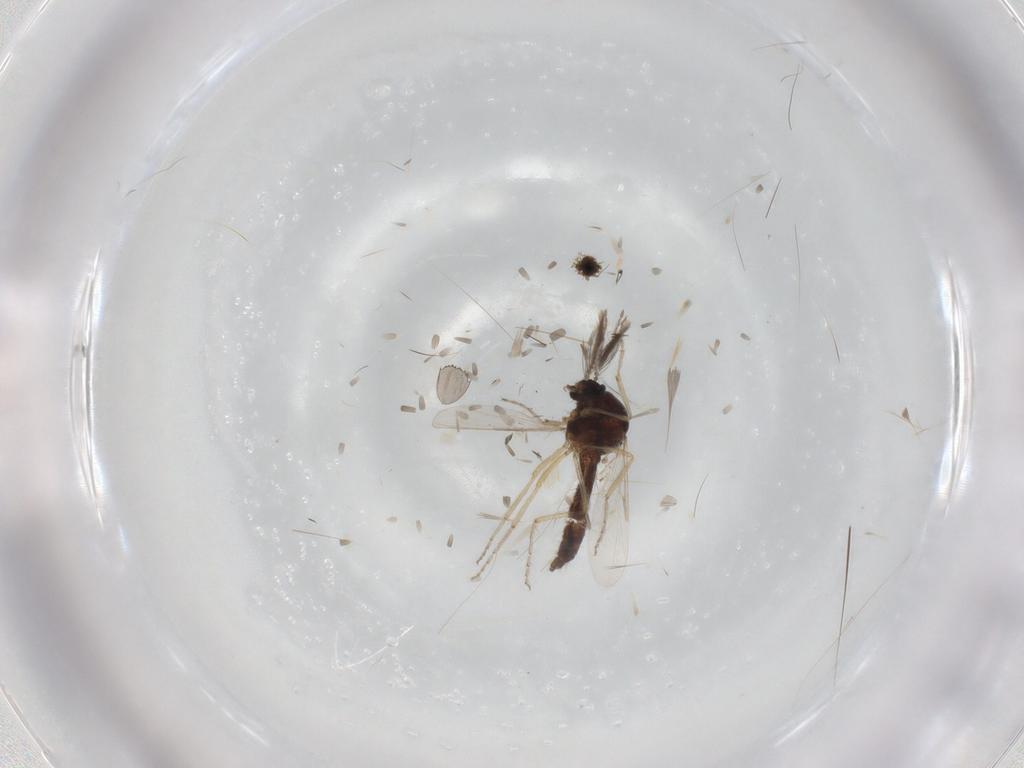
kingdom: Animalia
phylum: Arthropoda
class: Insecta
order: Diptera
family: Ceratopogonidae
